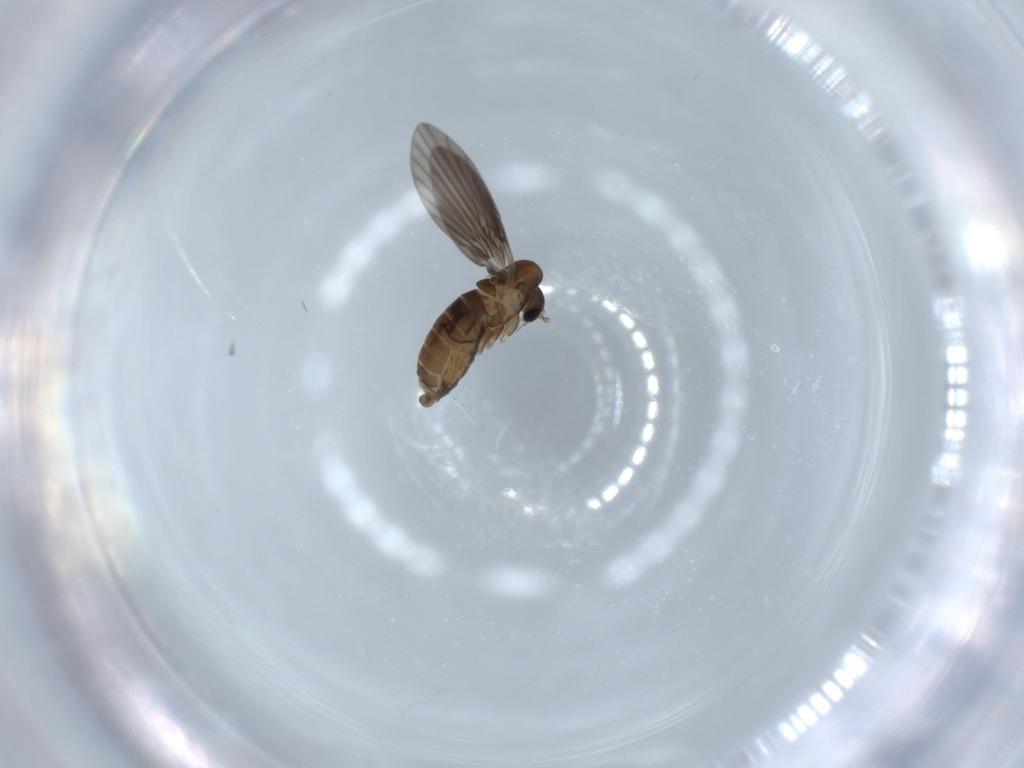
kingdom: Animalia
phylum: Arthropoda
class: Insecta
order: Diptera
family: Psychodidae
